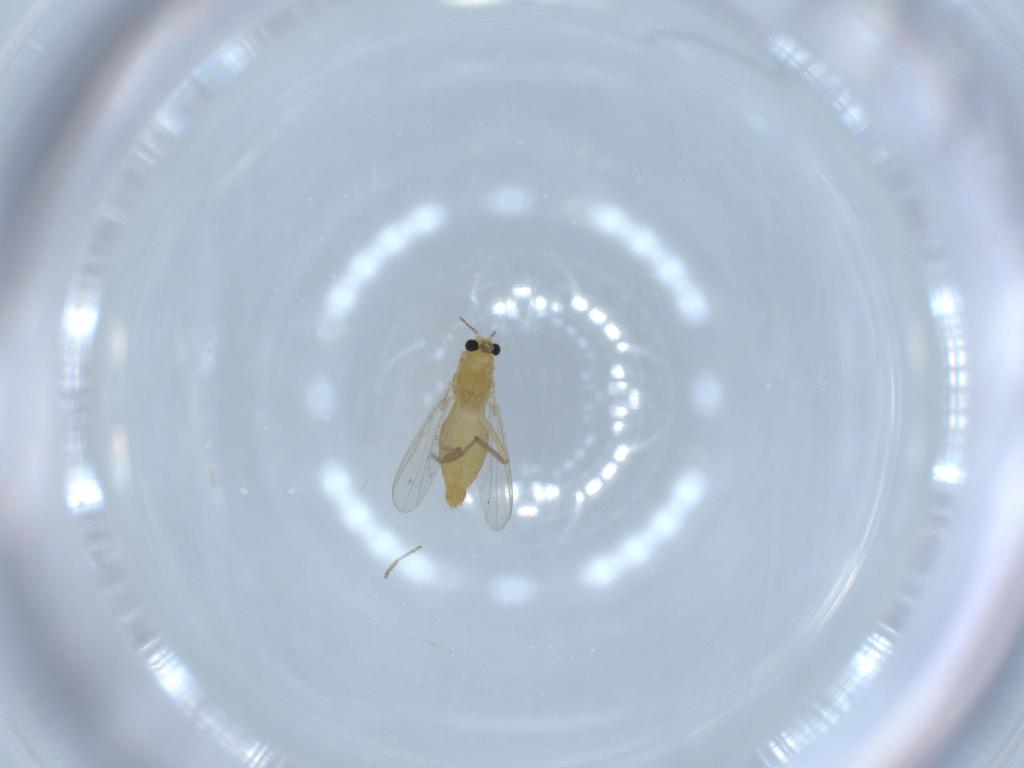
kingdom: Animalia
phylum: Arthropoda
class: Insecta
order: Diptera
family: Chironomidae
